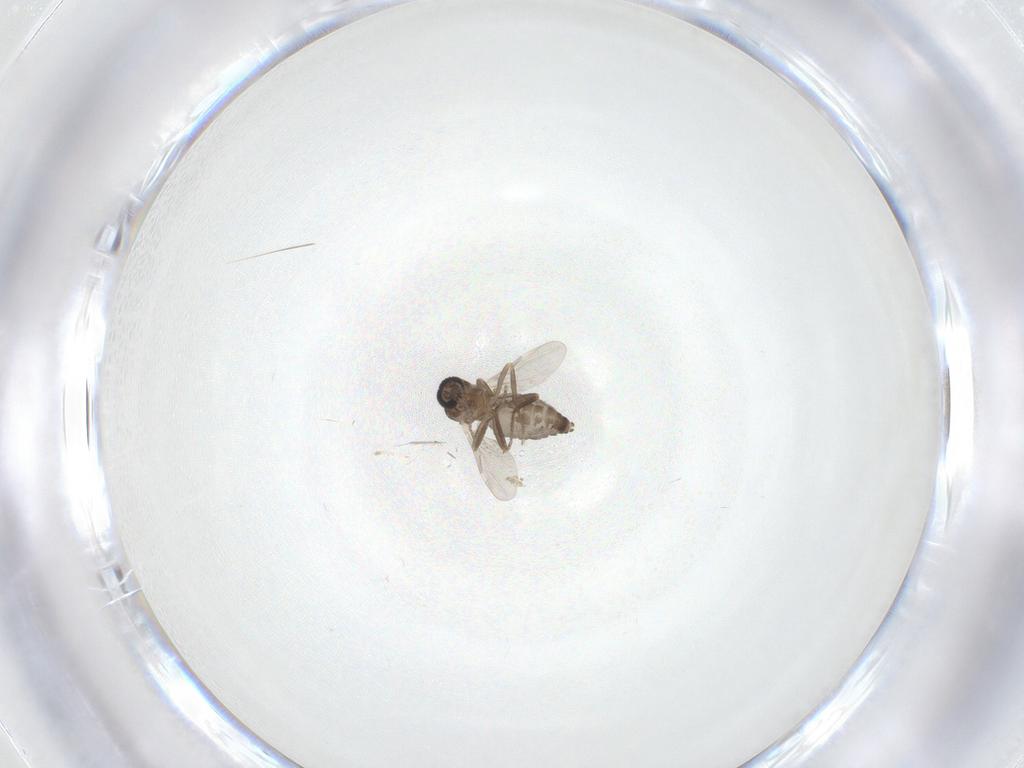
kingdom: Animalia
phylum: Arthropoda
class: Insecta
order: Diptera
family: Ceratopogonidae
